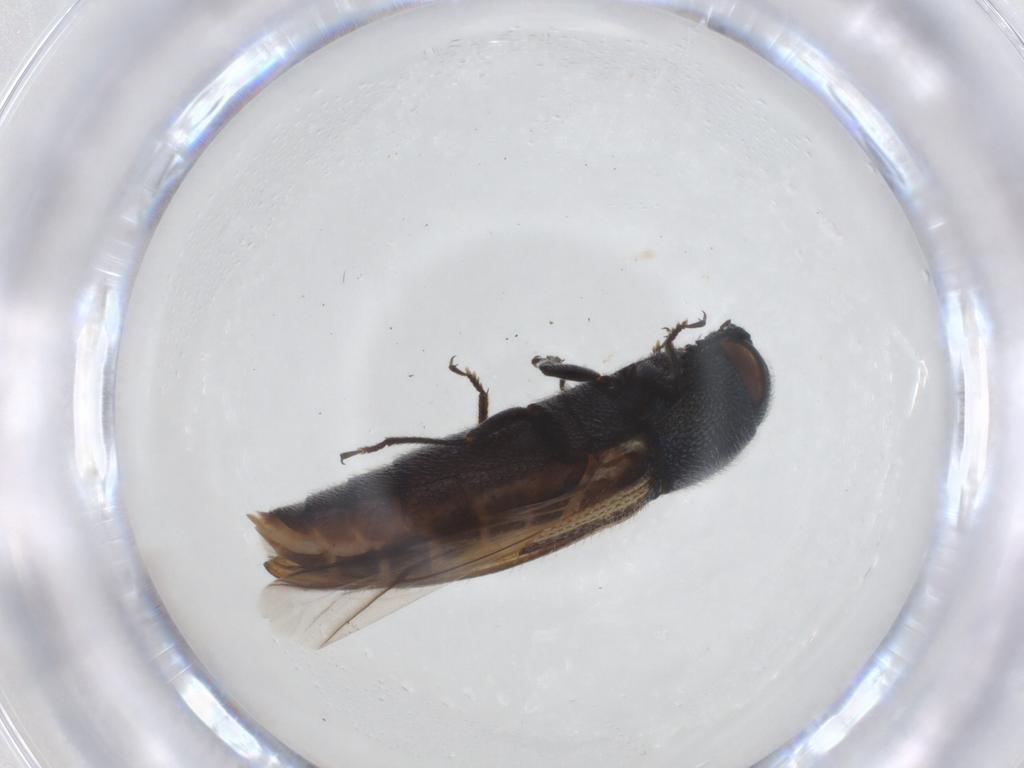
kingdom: Animalia
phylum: Arthropoda
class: Insecta
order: Coleoptera
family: Buprestidae
